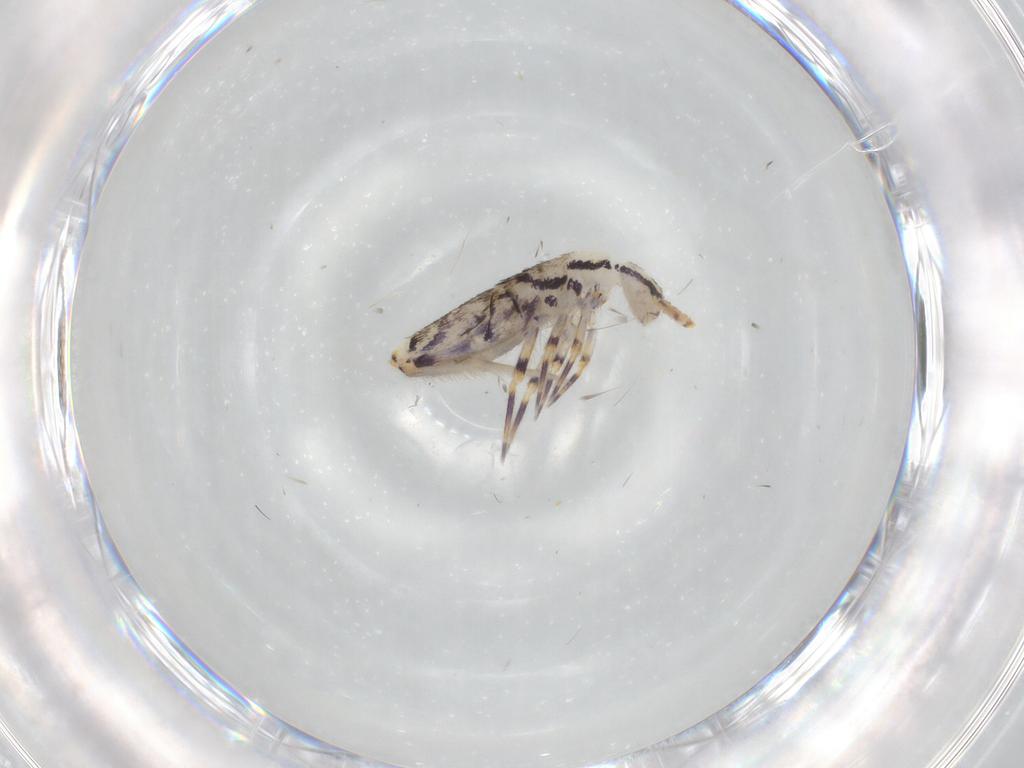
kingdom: Animalia
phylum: Arthropoda
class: Collembola
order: Entomobryomorpha
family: Entomobryidae
